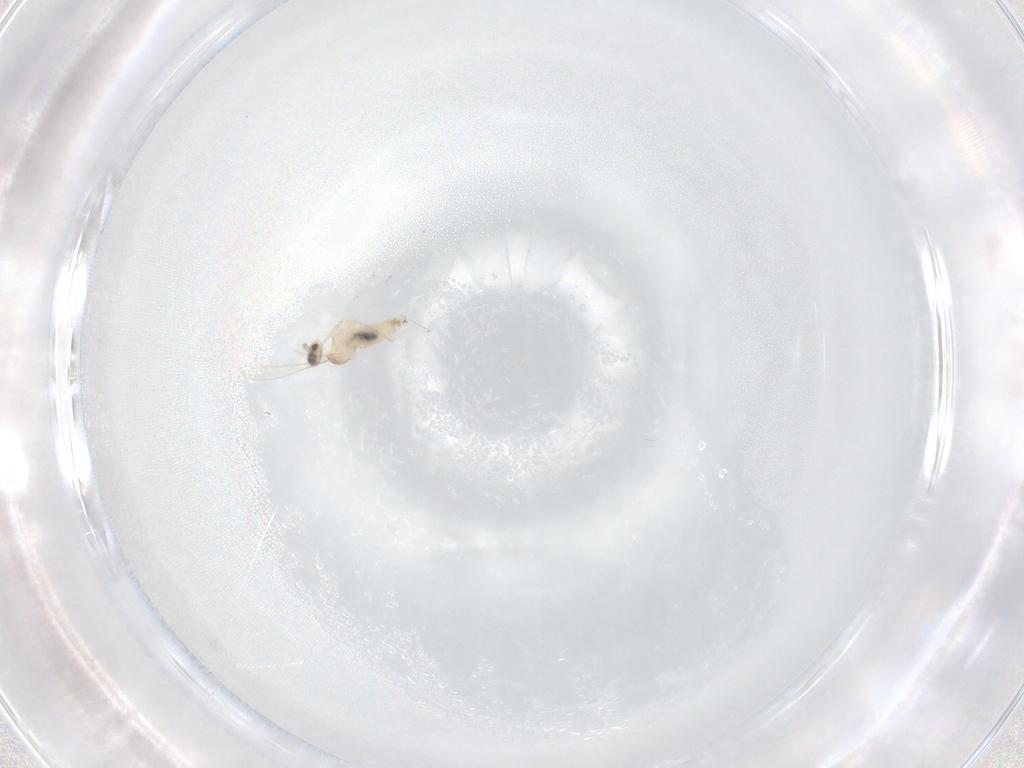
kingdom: Animalia
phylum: Arthropoda
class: Insecta
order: Diptera
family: Cecidomyiidae
